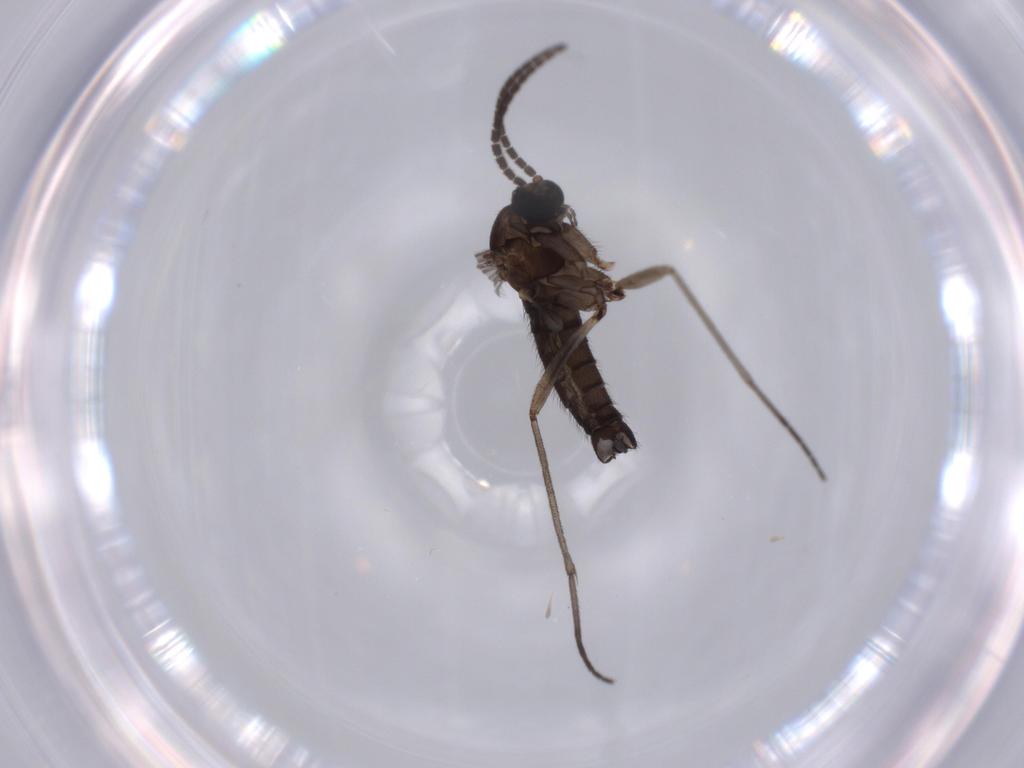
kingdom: Animalia
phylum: Arthropoda
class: Insecta
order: Diptera
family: Sciaridae
